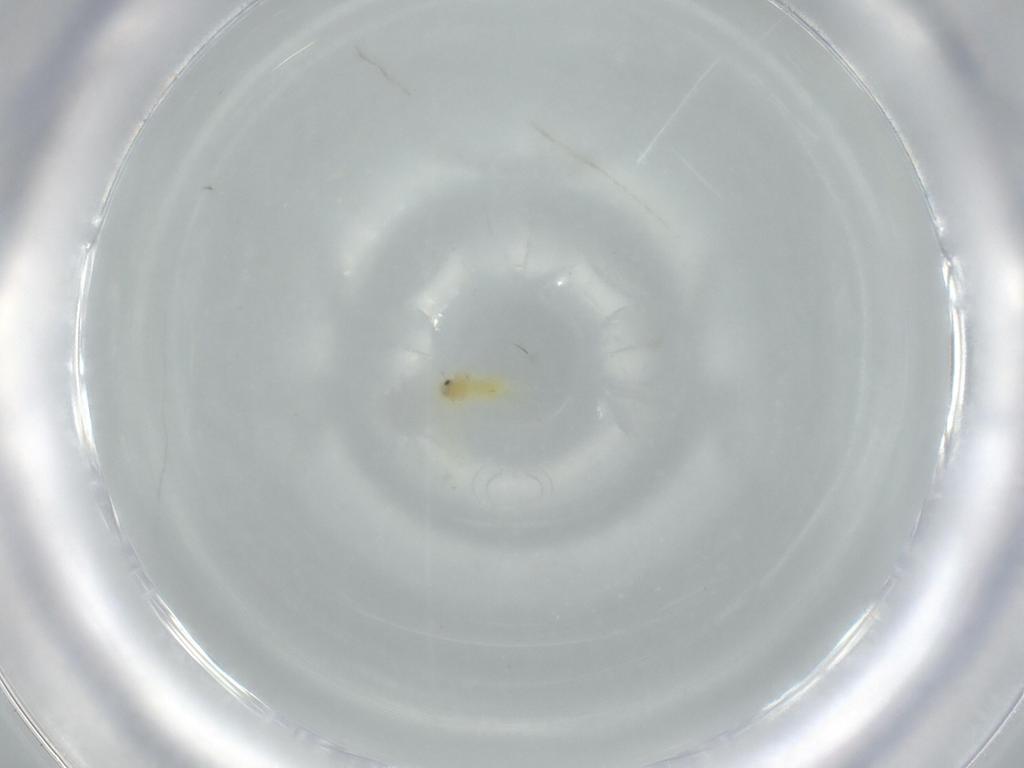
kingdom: Animalia
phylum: Arthropoda
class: Insecta
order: Hemiptera
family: Aleyrodidae
